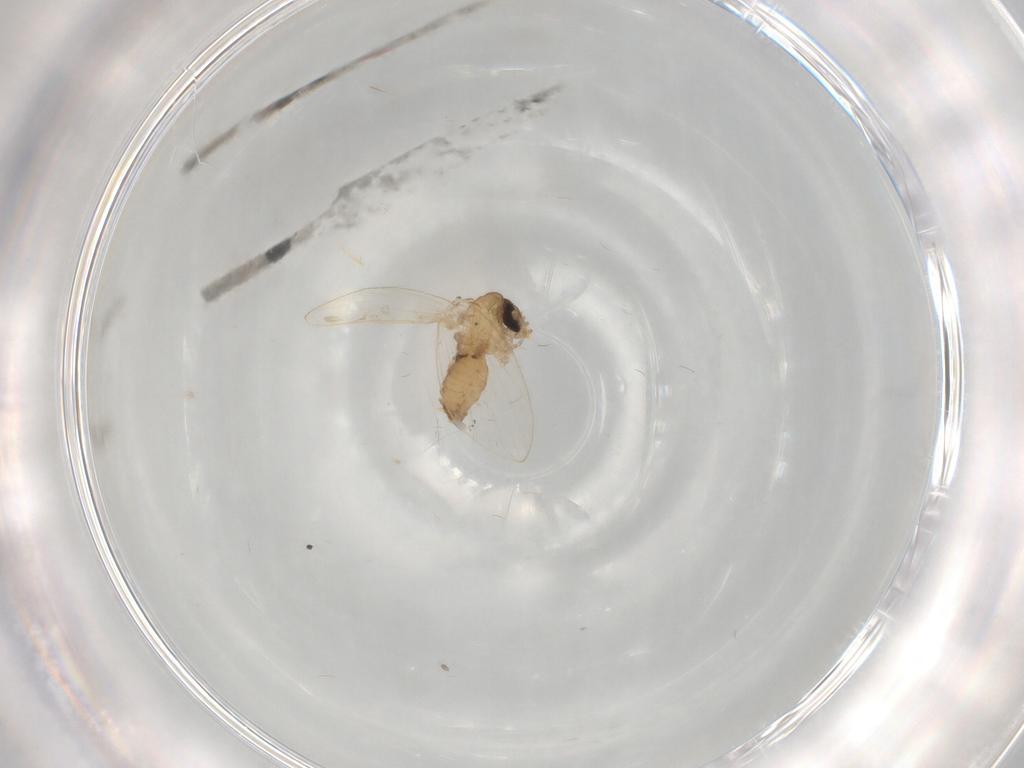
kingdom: Animalia
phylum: Arthropoda
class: Insecta
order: Diptera
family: Psychodidae
